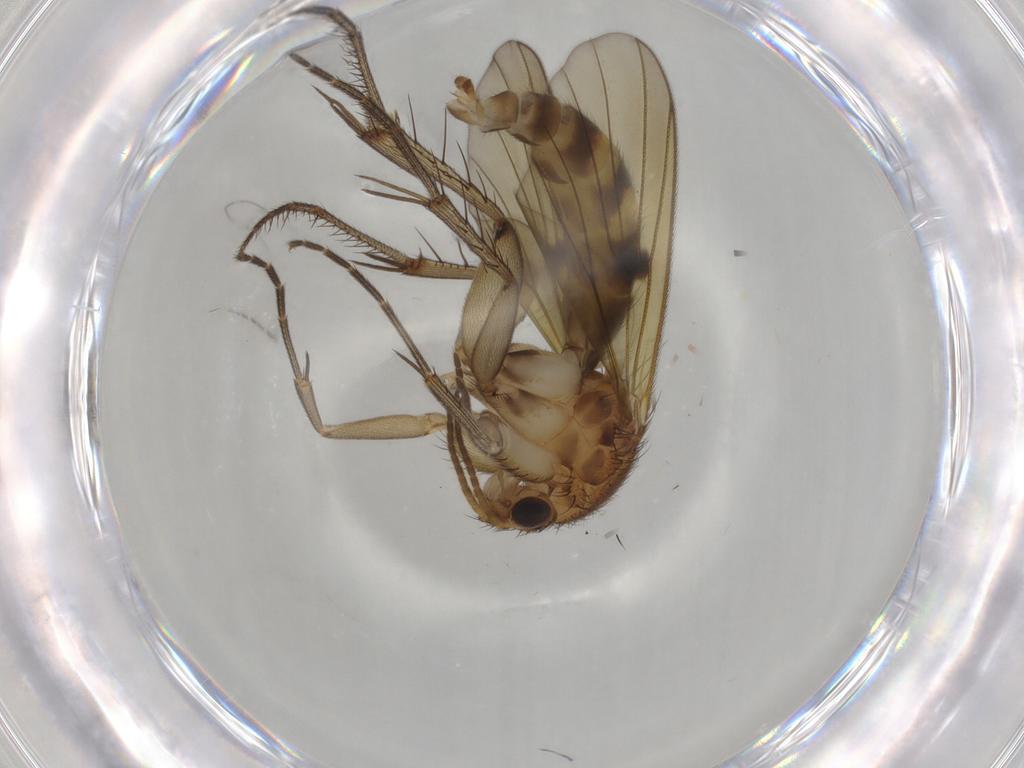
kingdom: Animalia
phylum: Arthropoda
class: Insecta
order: Diptera
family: Mycetophilidae
